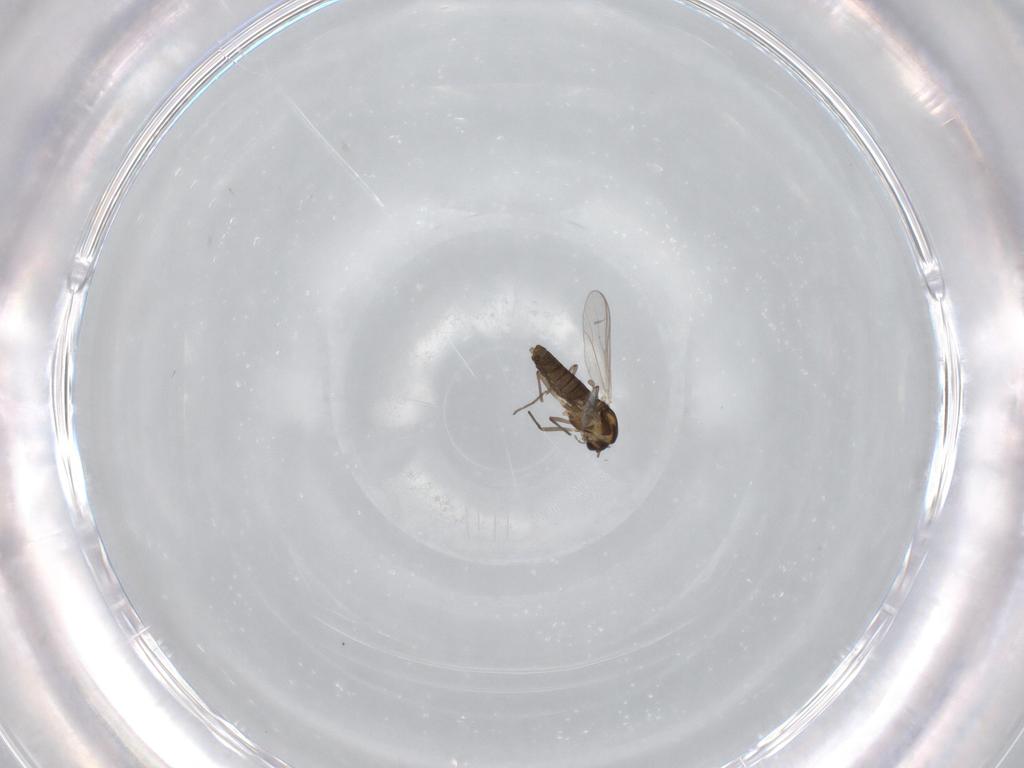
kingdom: Animalia
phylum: Arthropoda
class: Insecta
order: Diptera
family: Chironomidae
